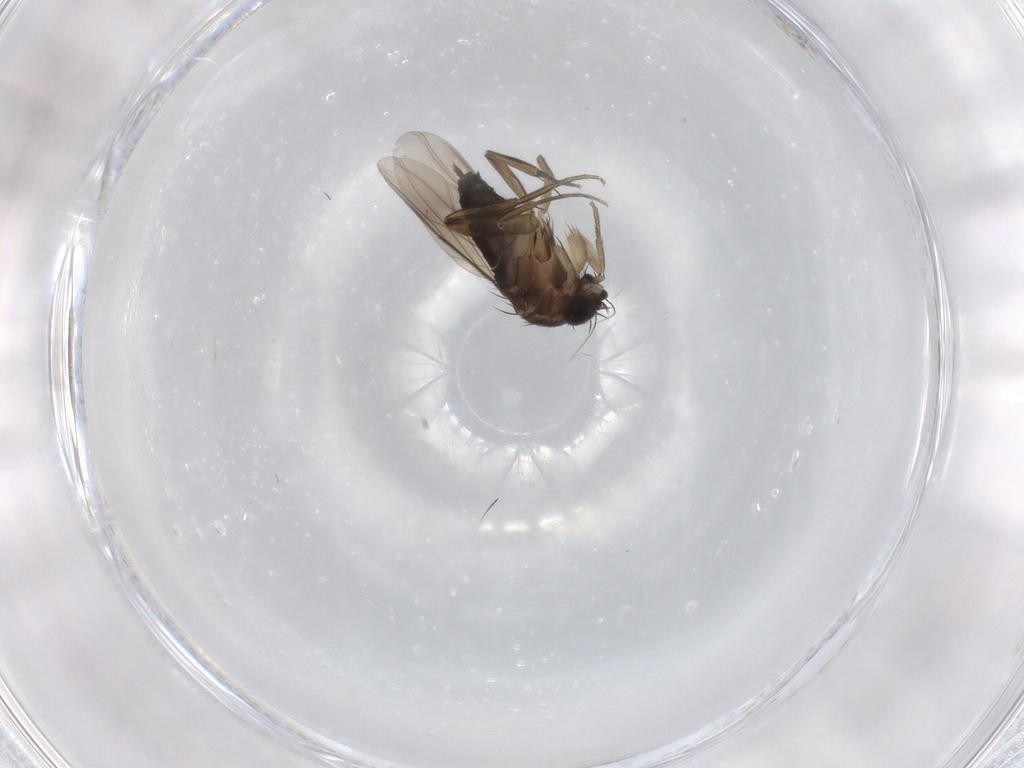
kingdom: Animalia
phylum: Arthropoda
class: Insecta
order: Diptera
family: Phoridae
